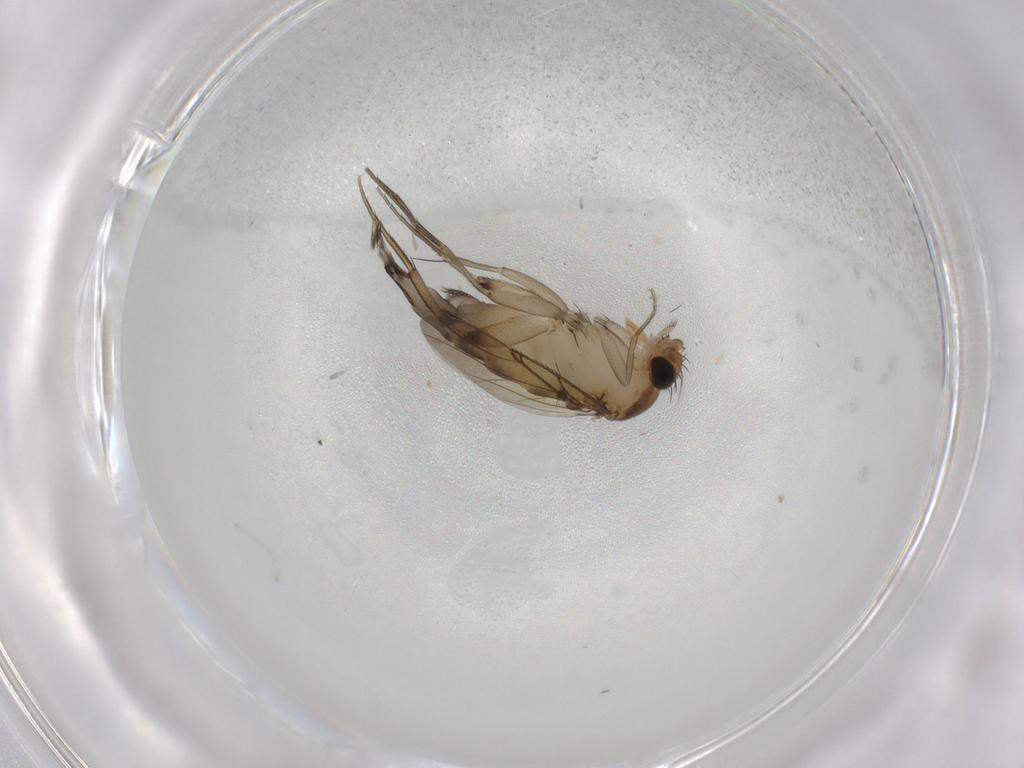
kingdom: Animalia
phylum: Arthropoda
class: Insecta
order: Diptera
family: Phoridae
